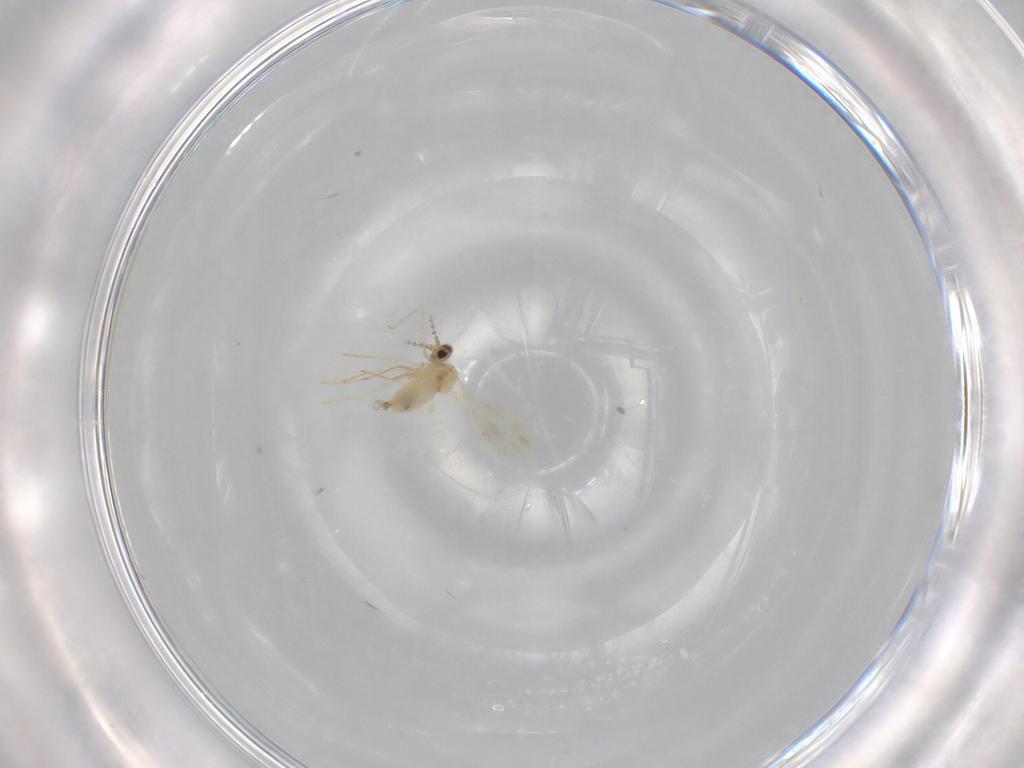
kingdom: Animalia
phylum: Arthropoda
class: Insecta
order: Diptera
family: Cecidomyiidae
